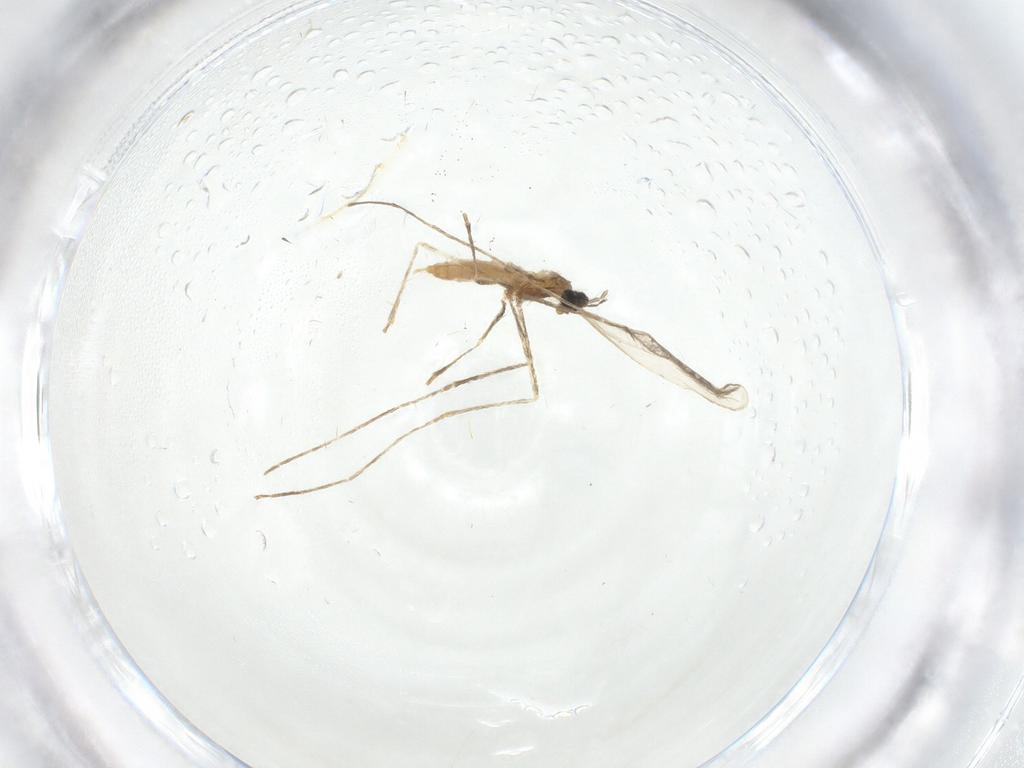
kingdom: Animalia
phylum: Arthropoda
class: Insecta
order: Diptera
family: Cecidomyiidae
